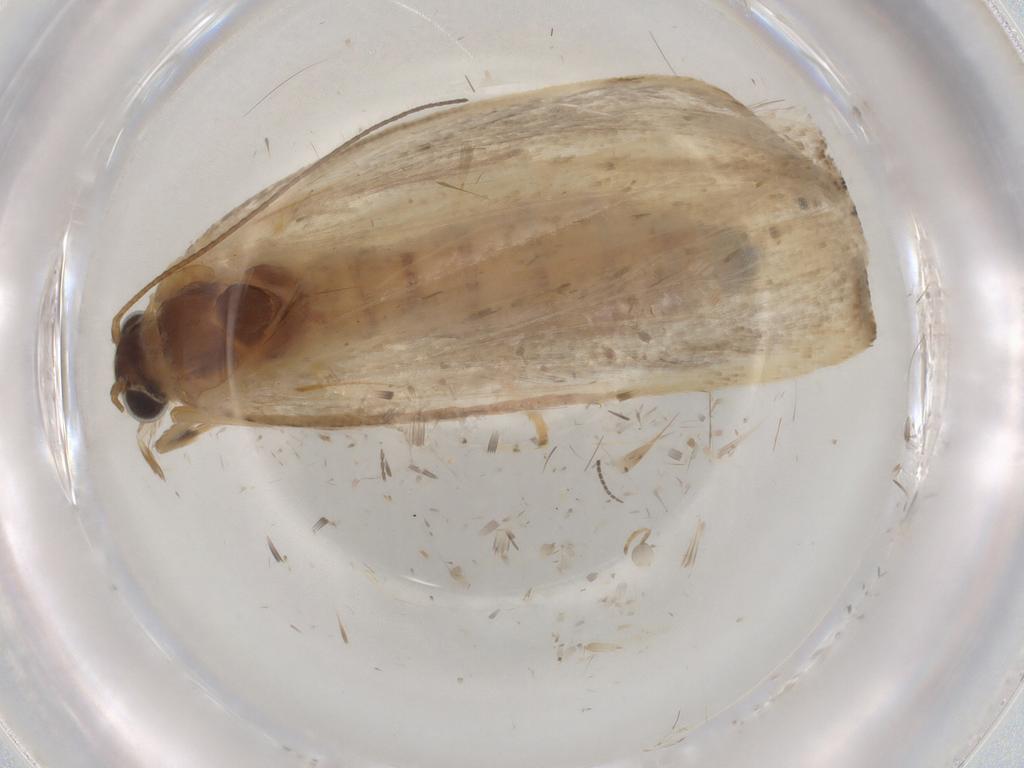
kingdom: Animalia
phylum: Arthropoda
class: Insecta
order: Lepidoptera
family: Crambidae
